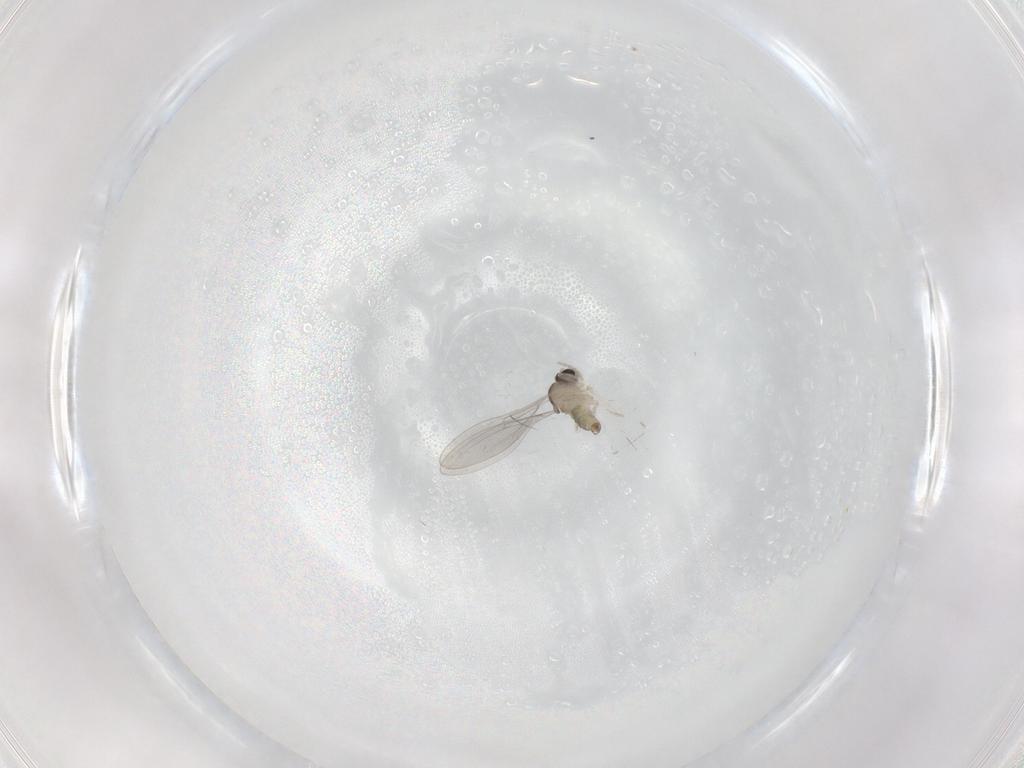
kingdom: Animalia
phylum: Arthropoda
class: Insecta
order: Diptera
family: Cecidomyiidae
